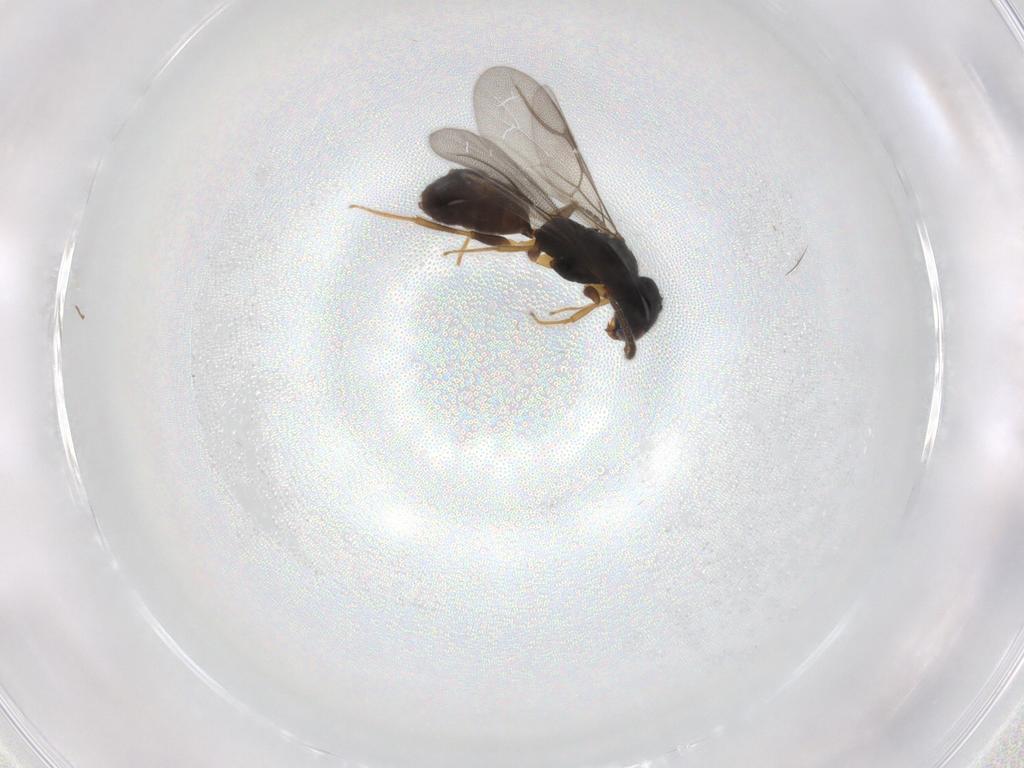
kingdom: Animalia
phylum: Arthropoda
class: Insecta
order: Hymenoptera
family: Bethylidae
